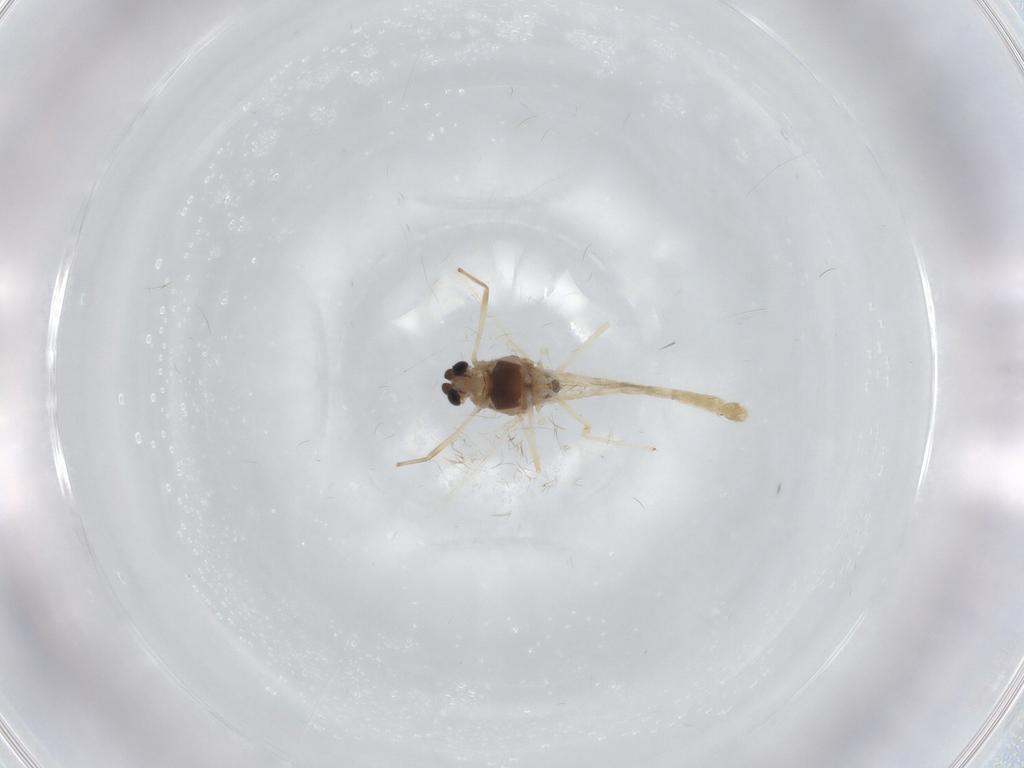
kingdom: Animalia
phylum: Arthropoda
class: Insecta
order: Diptera
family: Chironomidae
